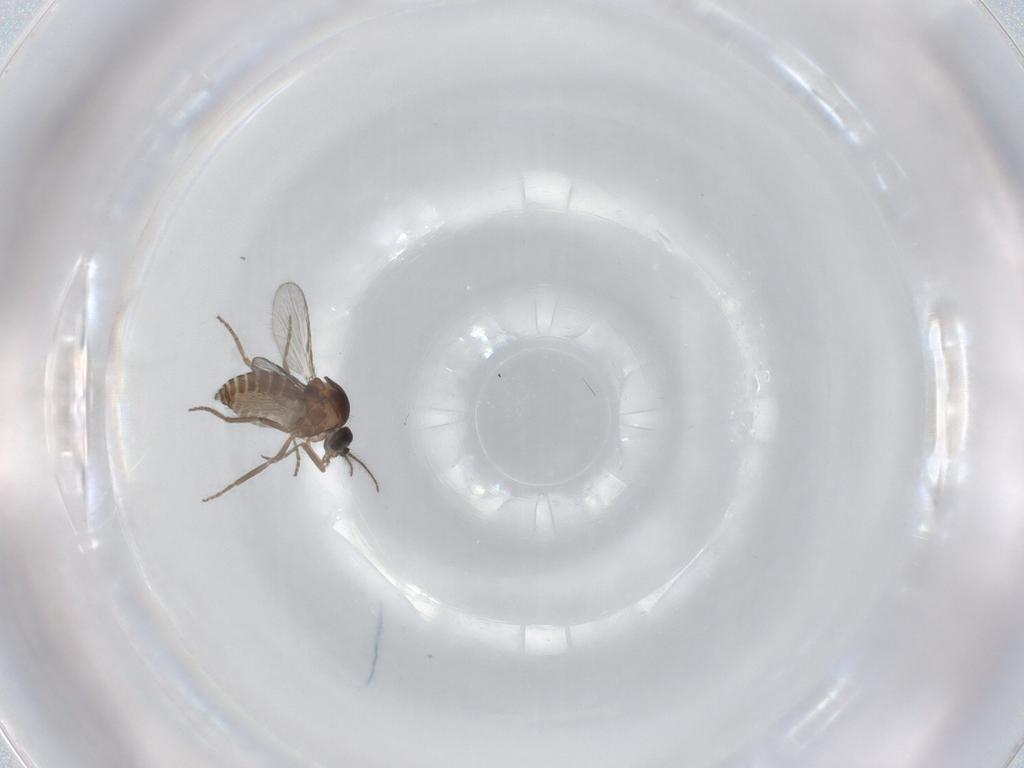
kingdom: Animalia
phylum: Arthropoda
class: Insecta
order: Diptera
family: Ceratopogonidae
